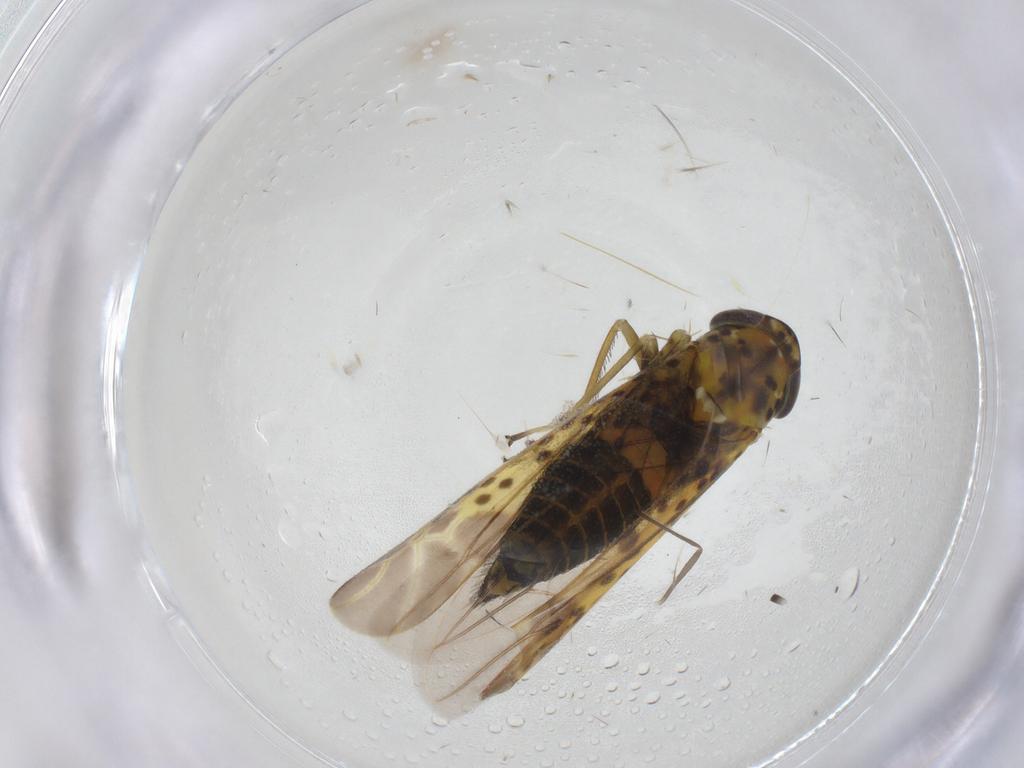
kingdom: Animalia
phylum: Arthropoda
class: Insecta
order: Hemiptera
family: Cicadellidae
